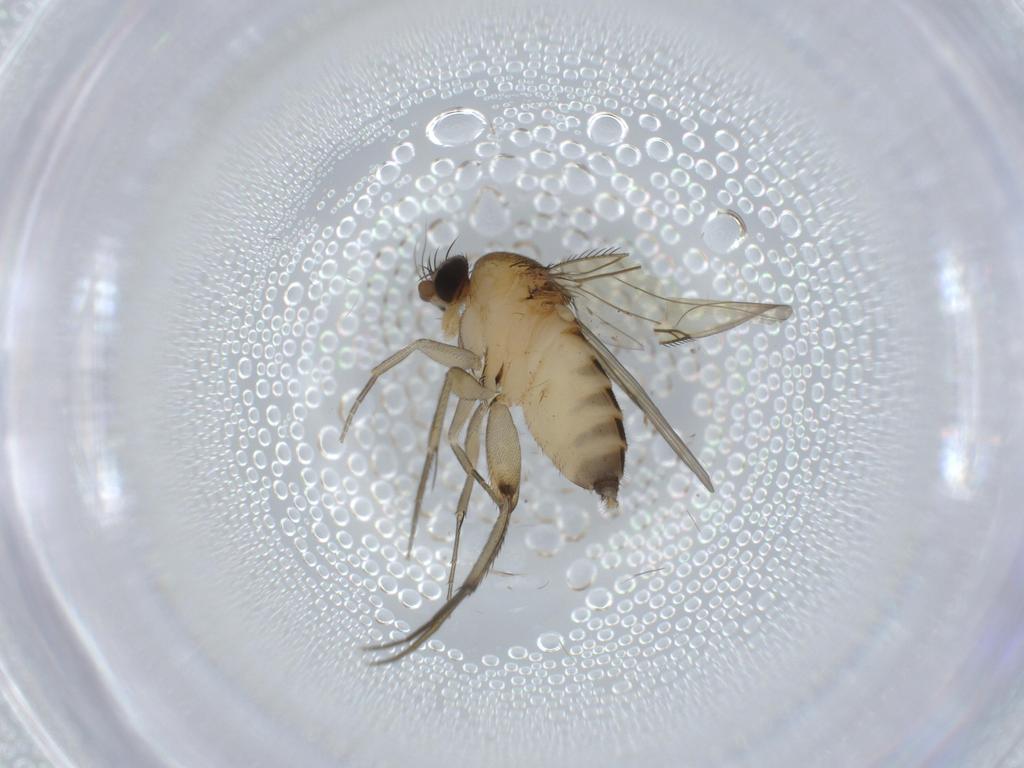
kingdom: Animalia
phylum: Arthropoda
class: Insecta
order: Diptera
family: Phoridae
